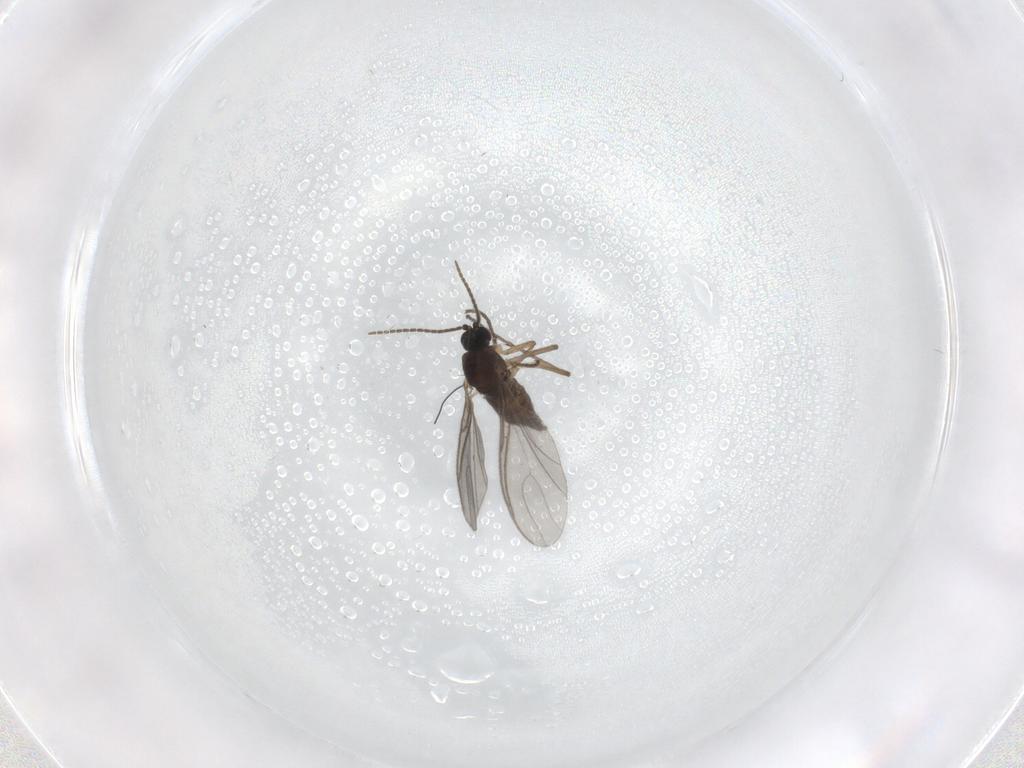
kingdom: Animalia
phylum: Arthropoda
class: Insecta
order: Diptera
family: Pipunculidae
